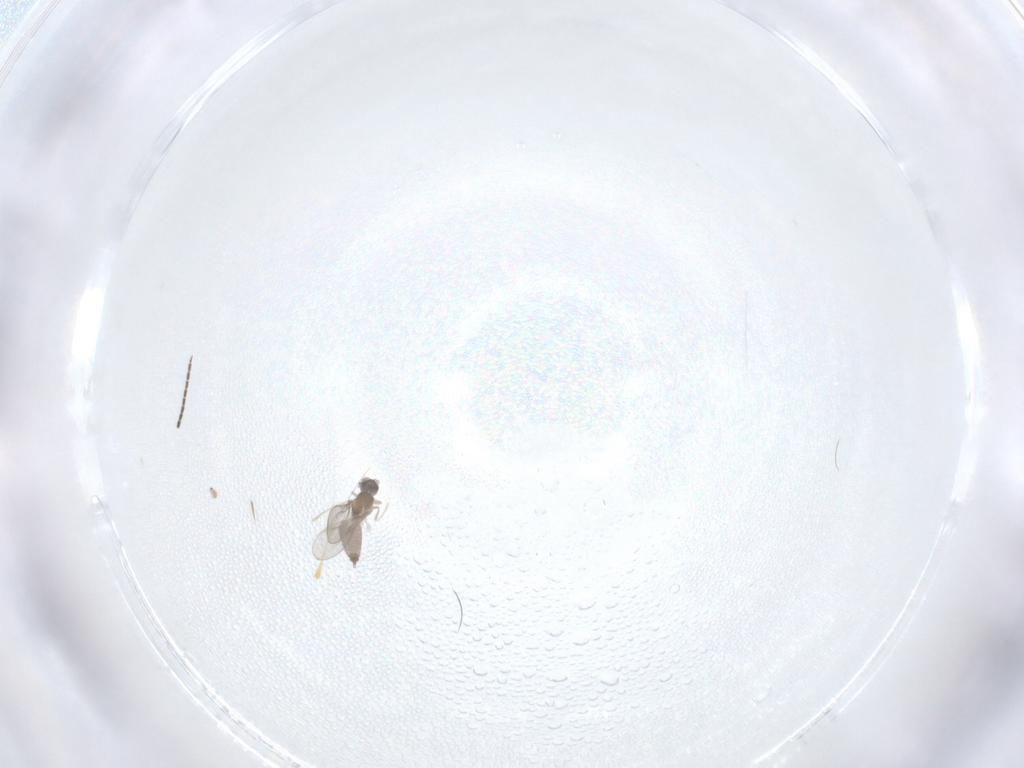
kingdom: Animalia
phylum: Arthropoda
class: Insecta
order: Diptera
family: Sciaridae
